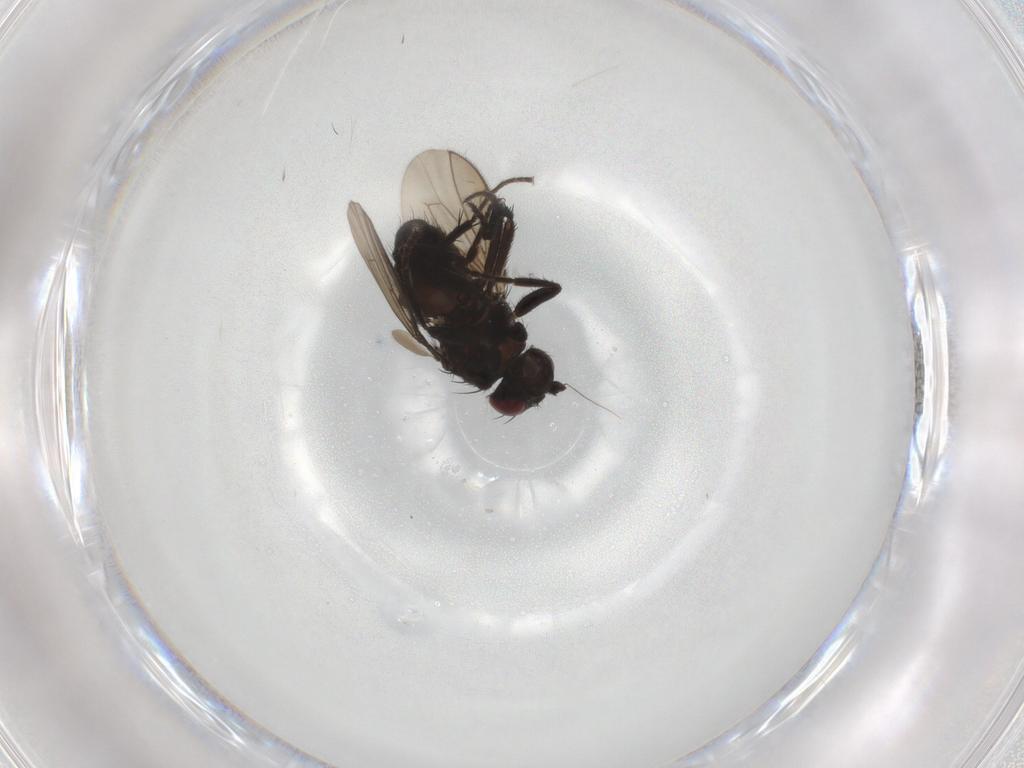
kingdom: Animalia
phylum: Arthropoda
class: Insecta
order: Diptera
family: Sphaeroceridae
